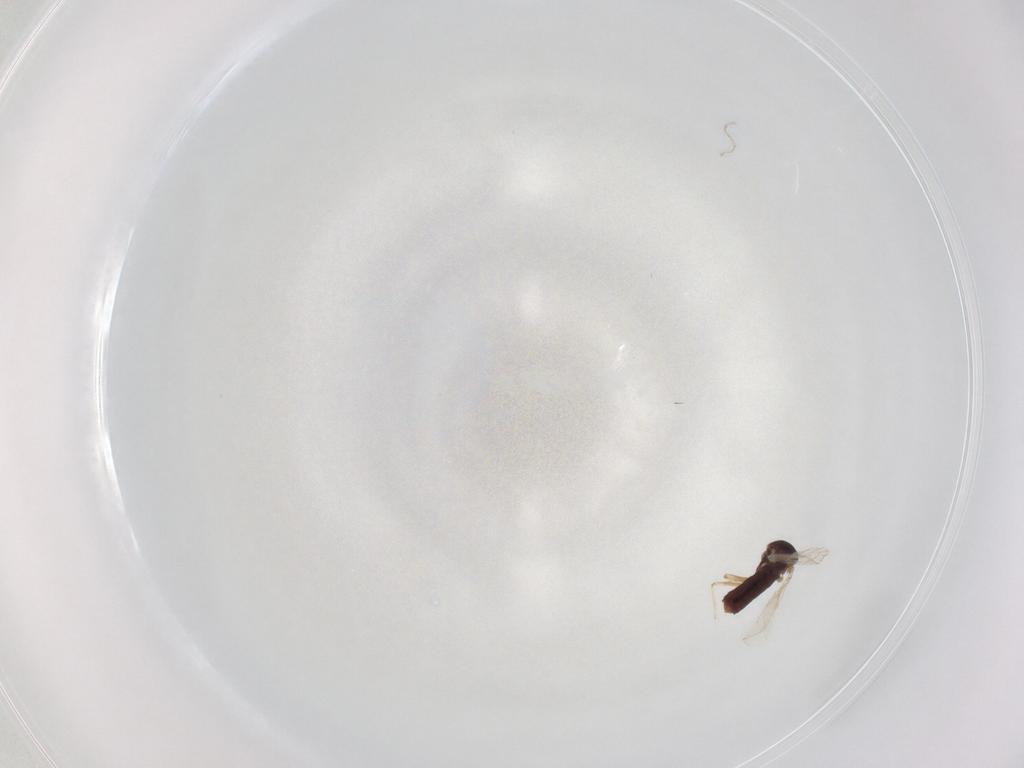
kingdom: Animalia
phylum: Arthropoda
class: Insecta
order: Diptera
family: Ceratopogonidae
